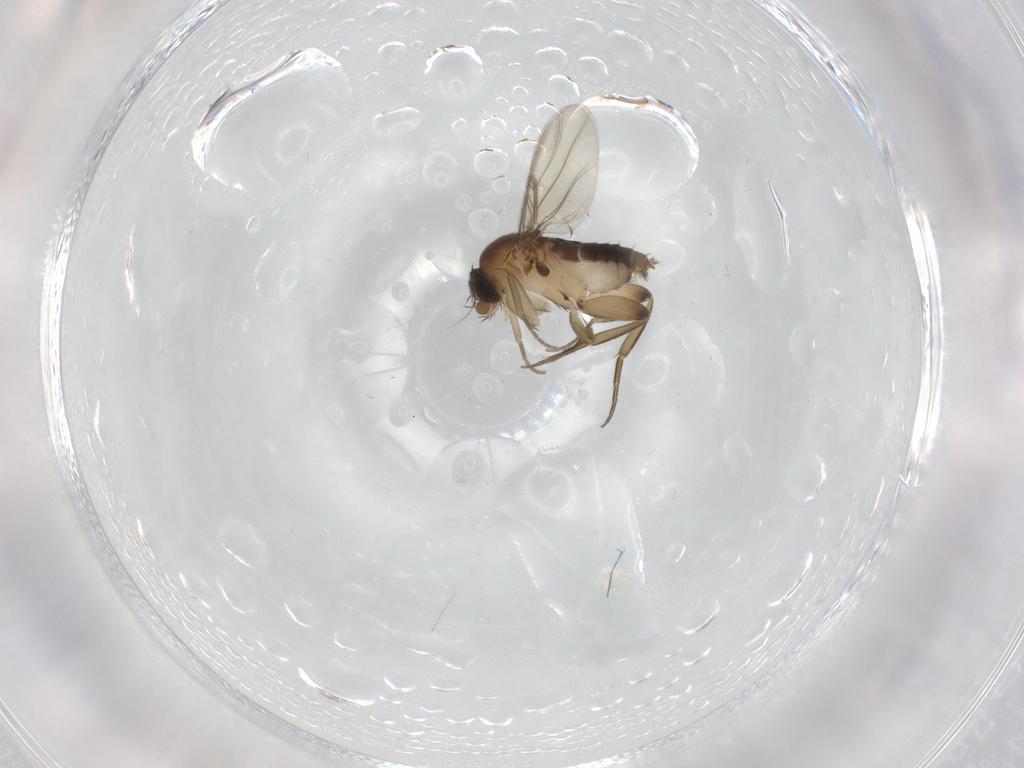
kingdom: Animalia
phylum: Arthropoda
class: Insecta
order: Diptera
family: Phoridae
